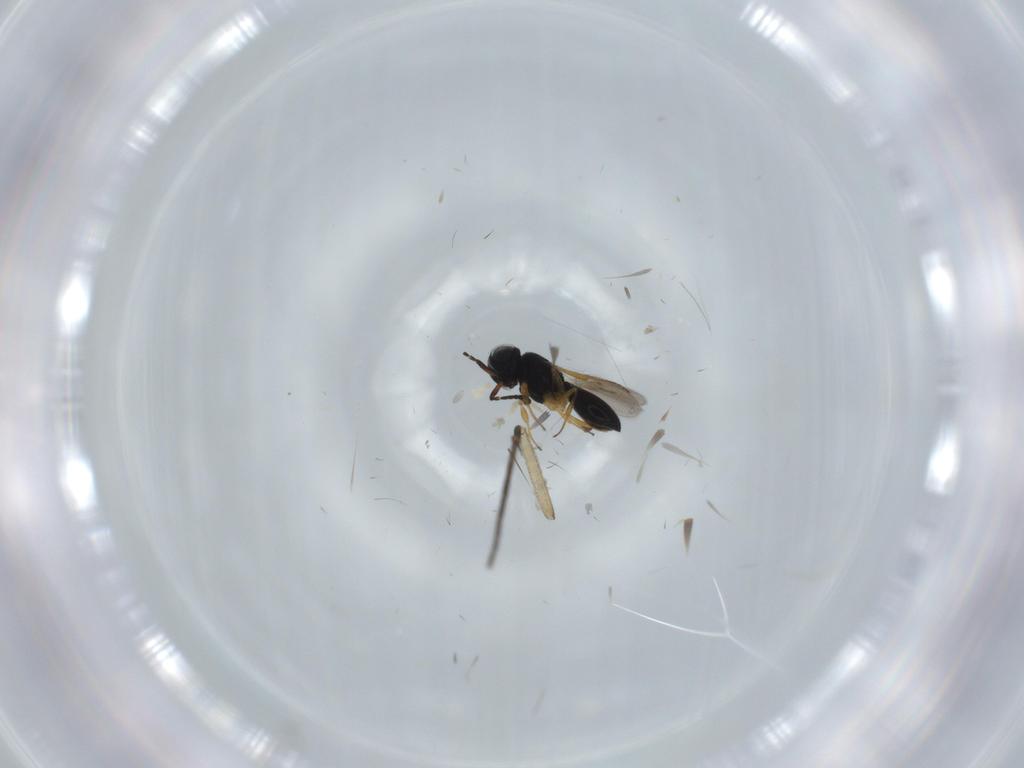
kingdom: Animalia
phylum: Arthropoda
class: Insecta
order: Hymenoptera
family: Scelionidae
